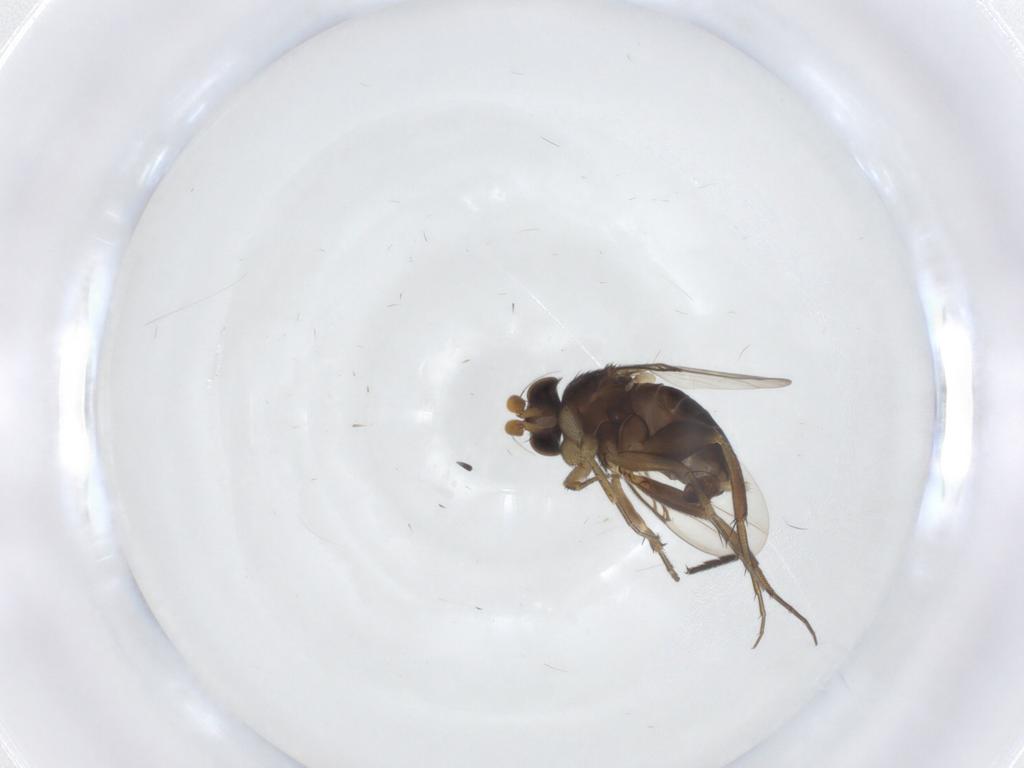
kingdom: Animalia
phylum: Arthropoda
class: Insecta
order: Diptera
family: Phoridae
